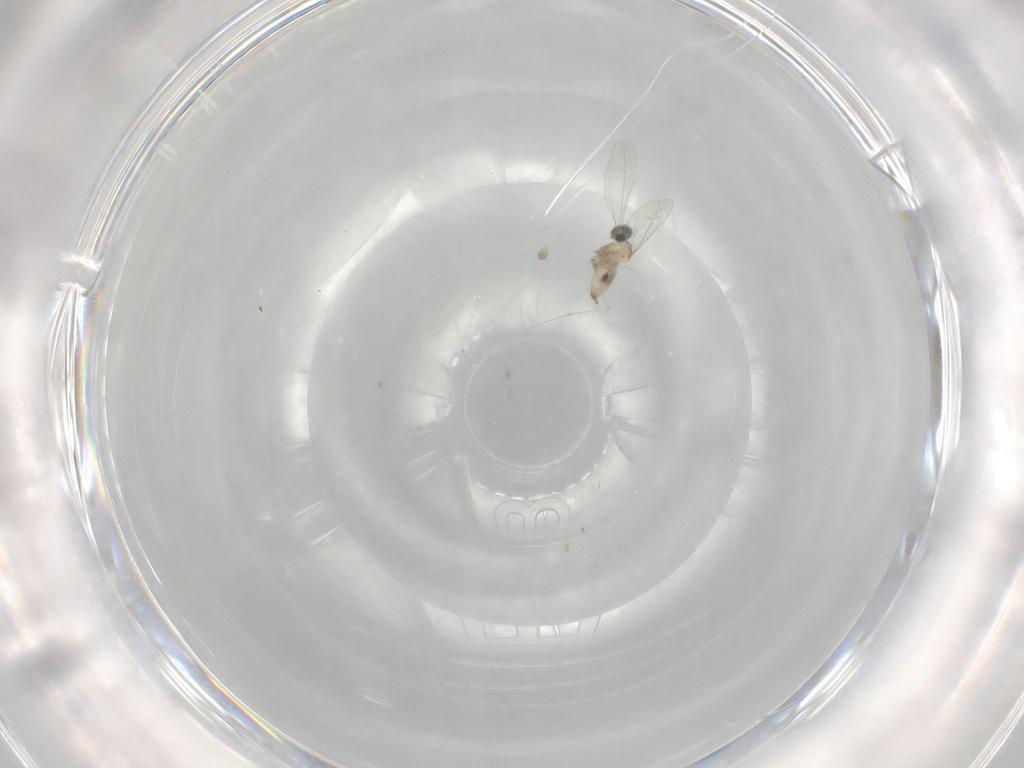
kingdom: Animalia
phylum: Arthropoda
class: Insecta
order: Diptera
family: Cecidomyiidae
